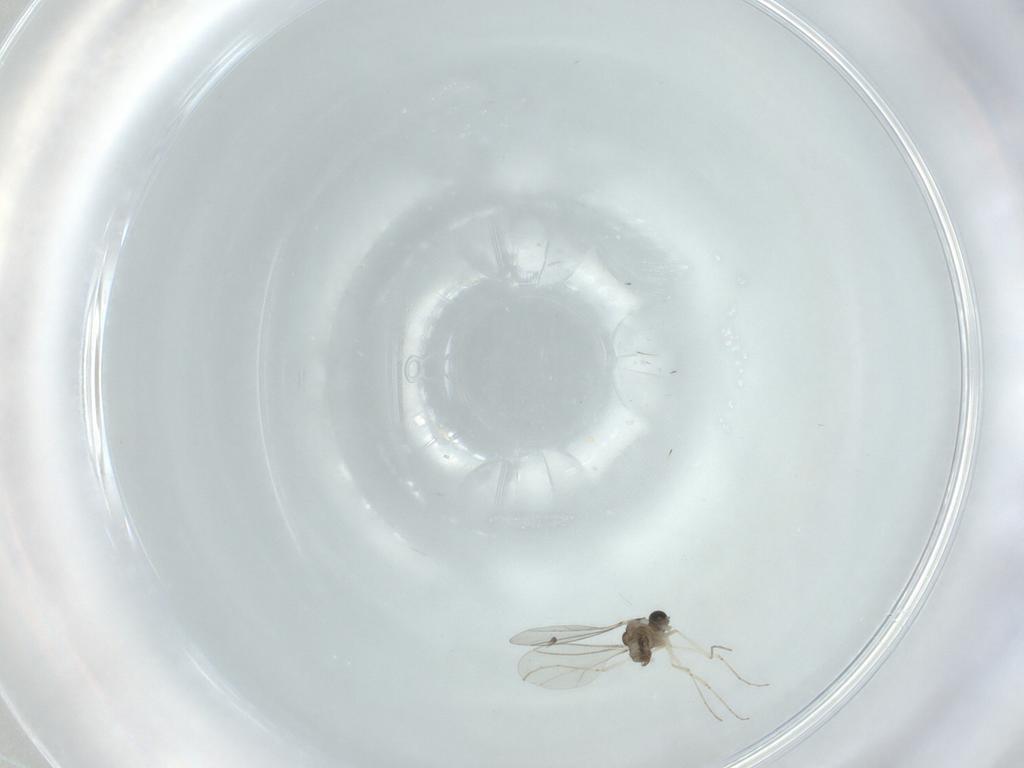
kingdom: Animalia
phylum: Arthropoda
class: Insecta
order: Diptera
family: Cecidomyiidae
